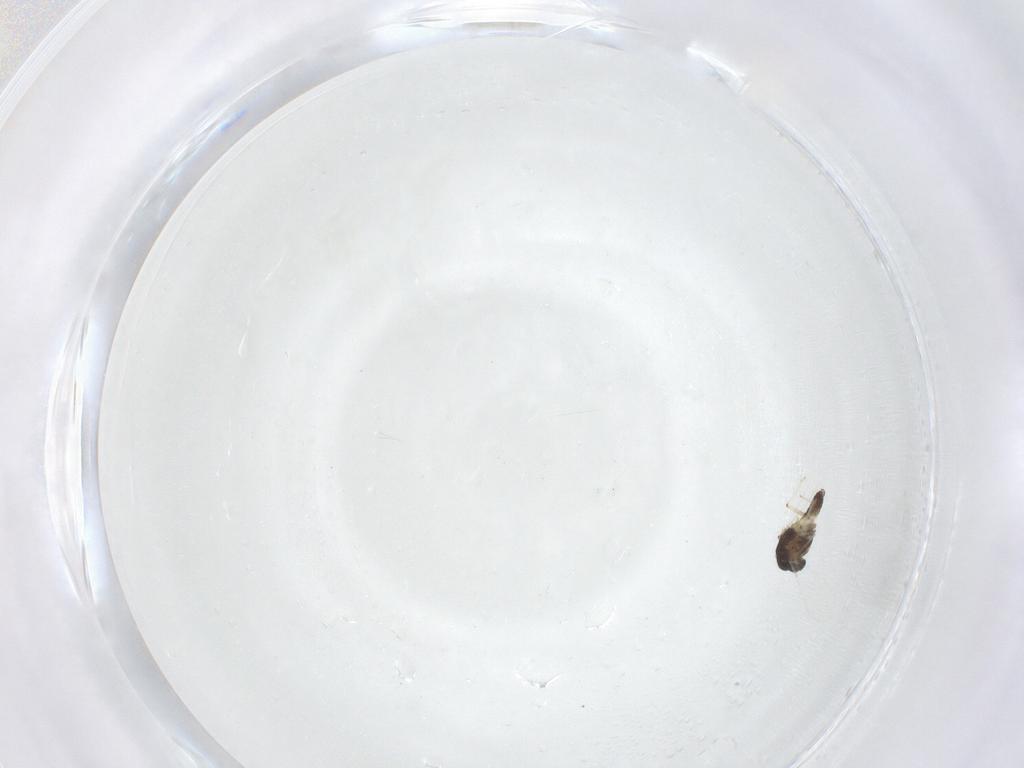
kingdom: Animalia
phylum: Arthropoda
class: Insecta
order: Diptera
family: Chironomidae
